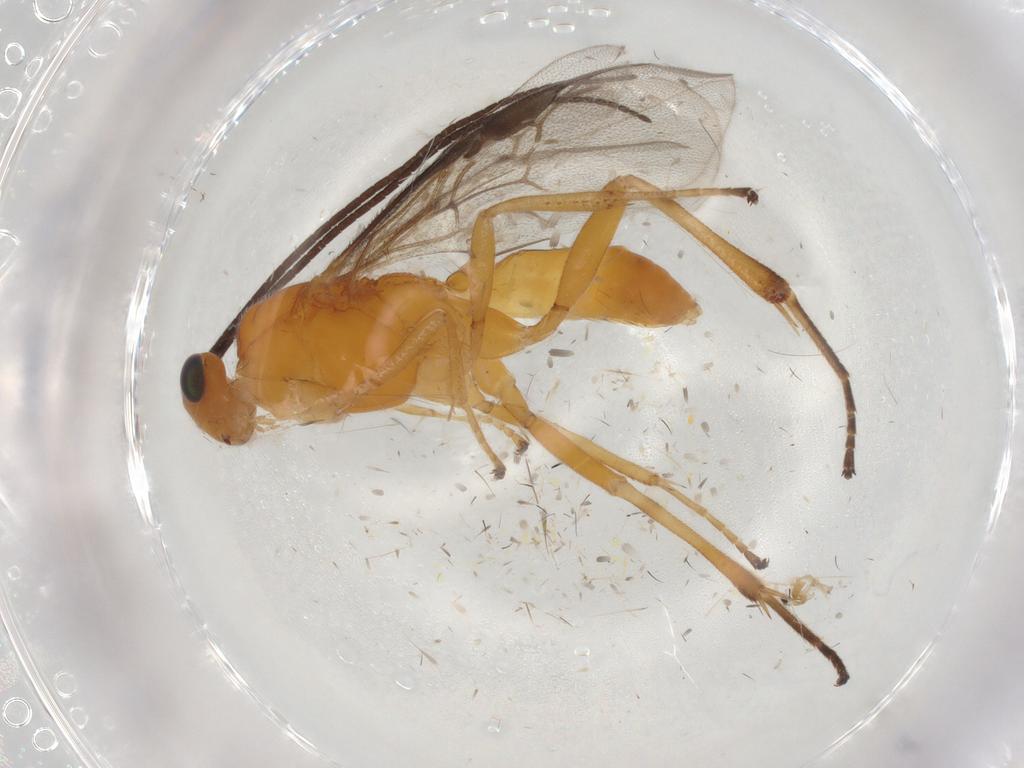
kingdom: Animalia
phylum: Arthropoda
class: Insecta
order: Hymenoptera
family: Braconidae
